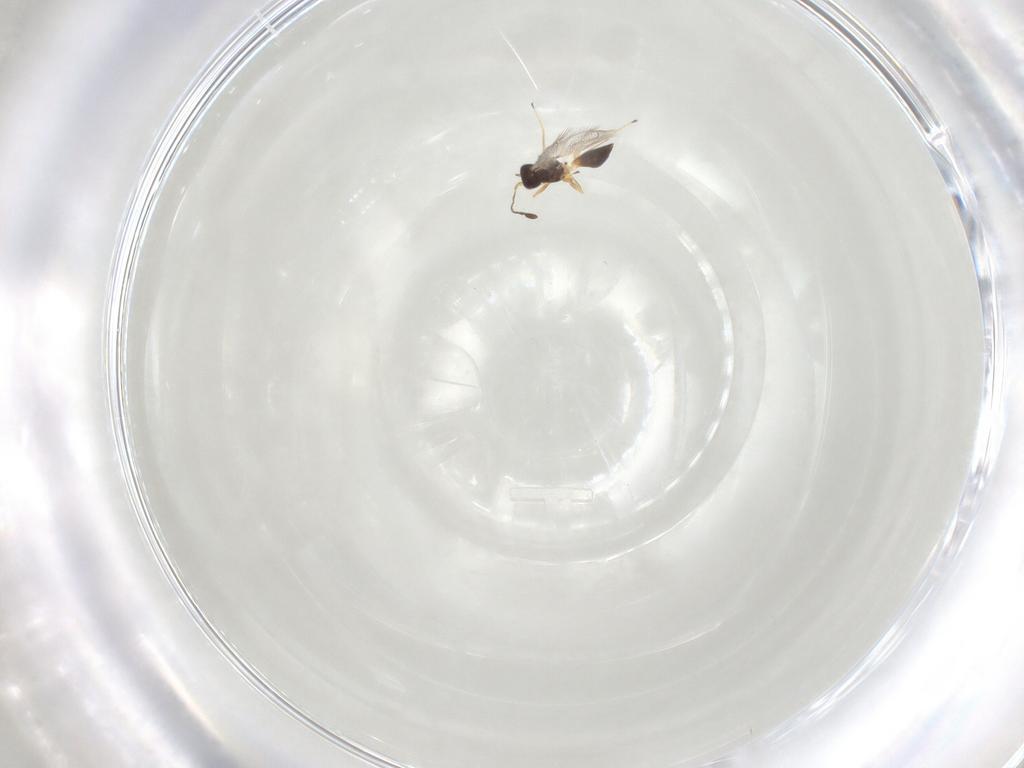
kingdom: Animalia
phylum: Arthropoda
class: Insecta
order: Hymenoptera
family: Mymaridae
